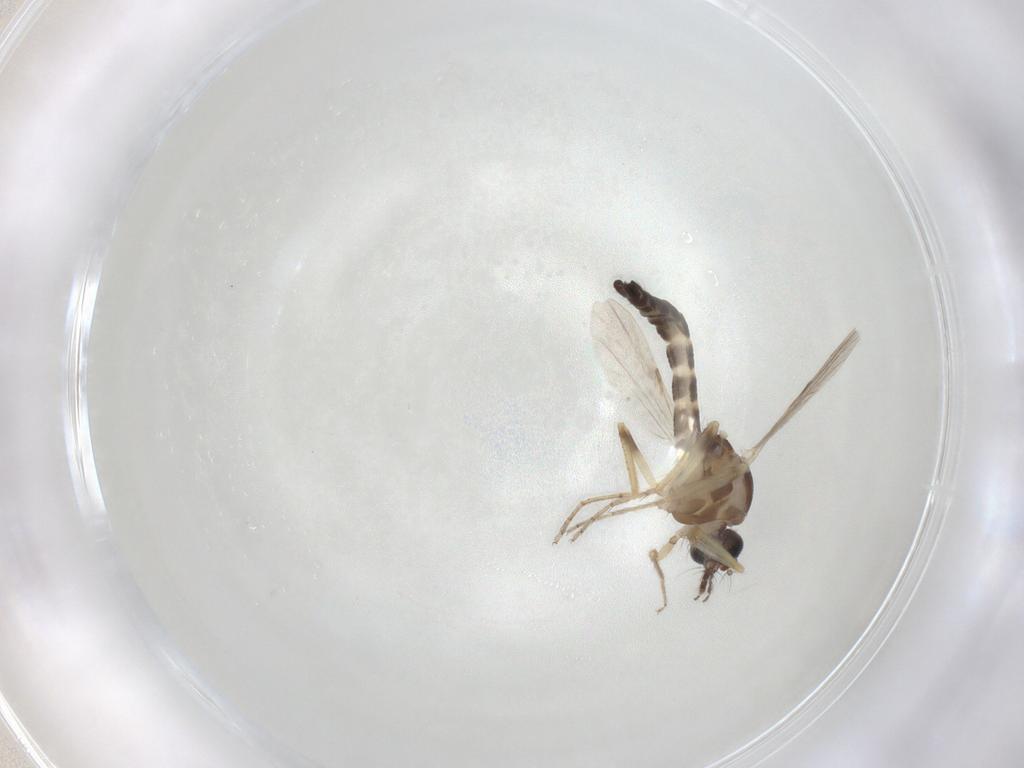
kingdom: Animalia
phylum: Arthropoda
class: Insecta
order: Diptera
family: Ceratopogonidae
